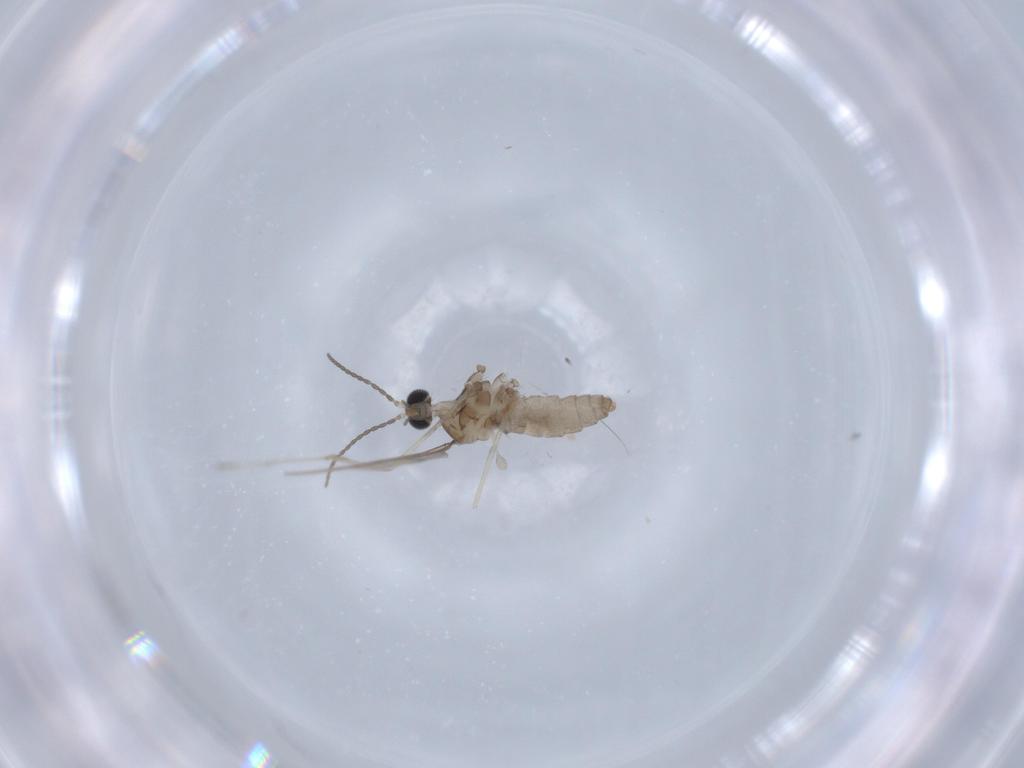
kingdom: Animalia
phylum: Arthropoda
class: Insecta
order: Diptera
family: Cecidomyiidae
